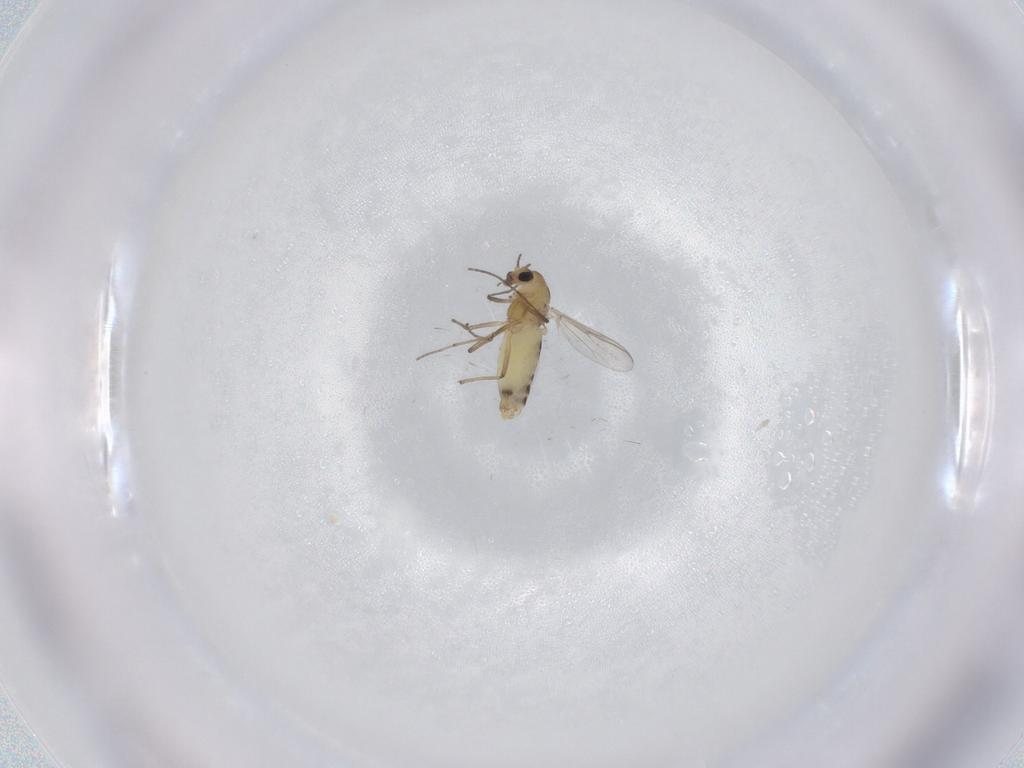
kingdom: Animalia
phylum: Arthropoda
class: Insecta
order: Diptera
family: Chironomidae
